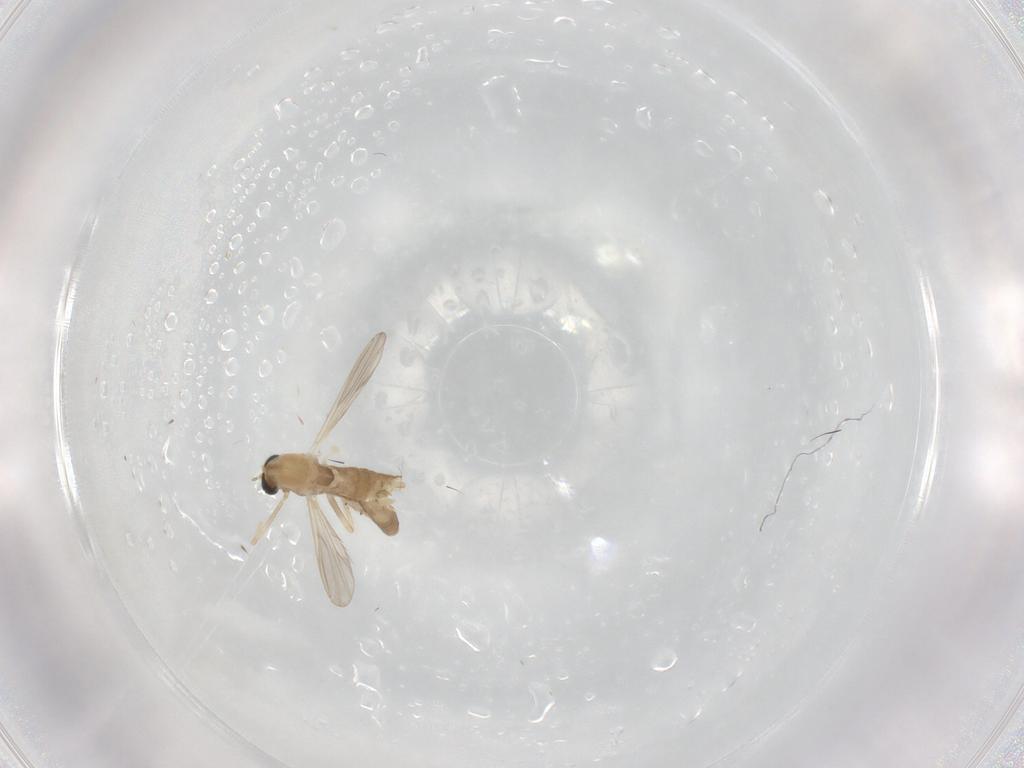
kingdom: Animalia
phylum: Arthropoda
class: Insecta
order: Diptera
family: Chironomidae
